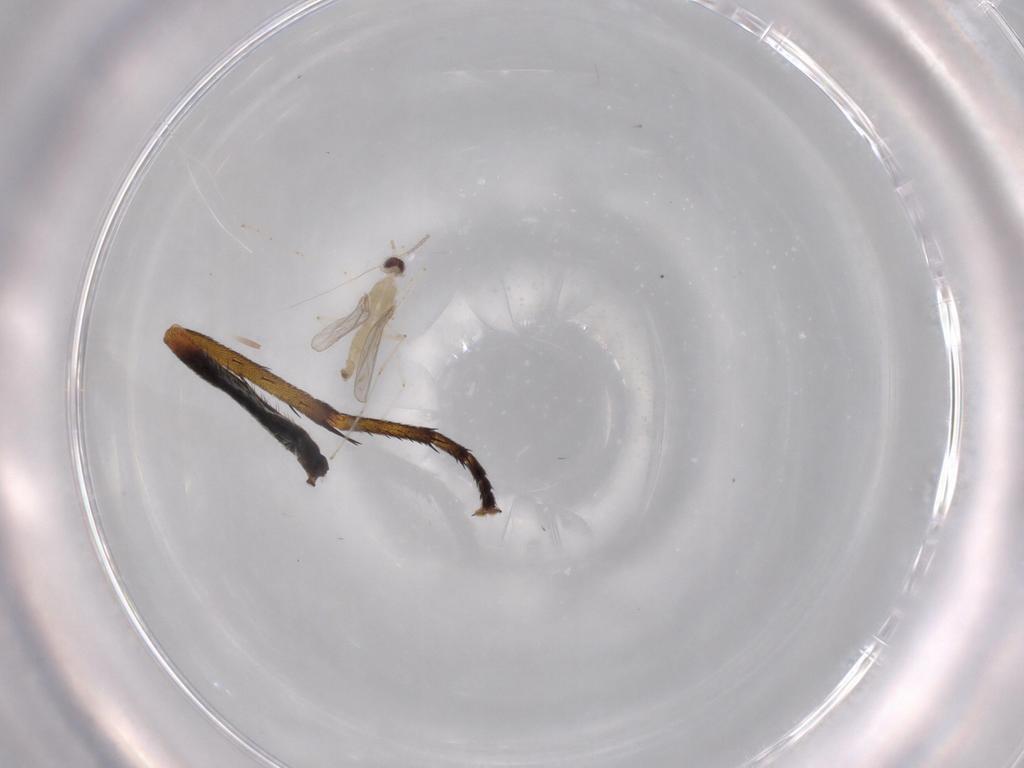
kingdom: Animalia
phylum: Arthropoda
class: Insecta
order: Diptera
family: Cecidomyiidae
